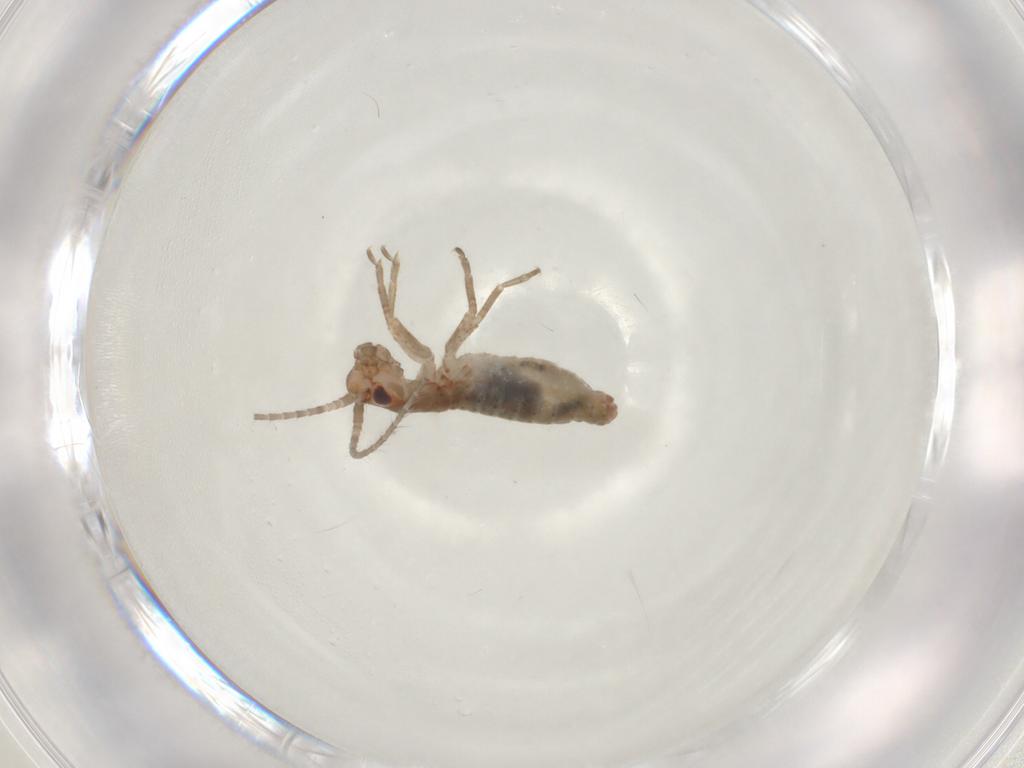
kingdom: Animalia
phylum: Arthropoda
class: Insecta
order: Orthoptera
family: Mogoplistidae
